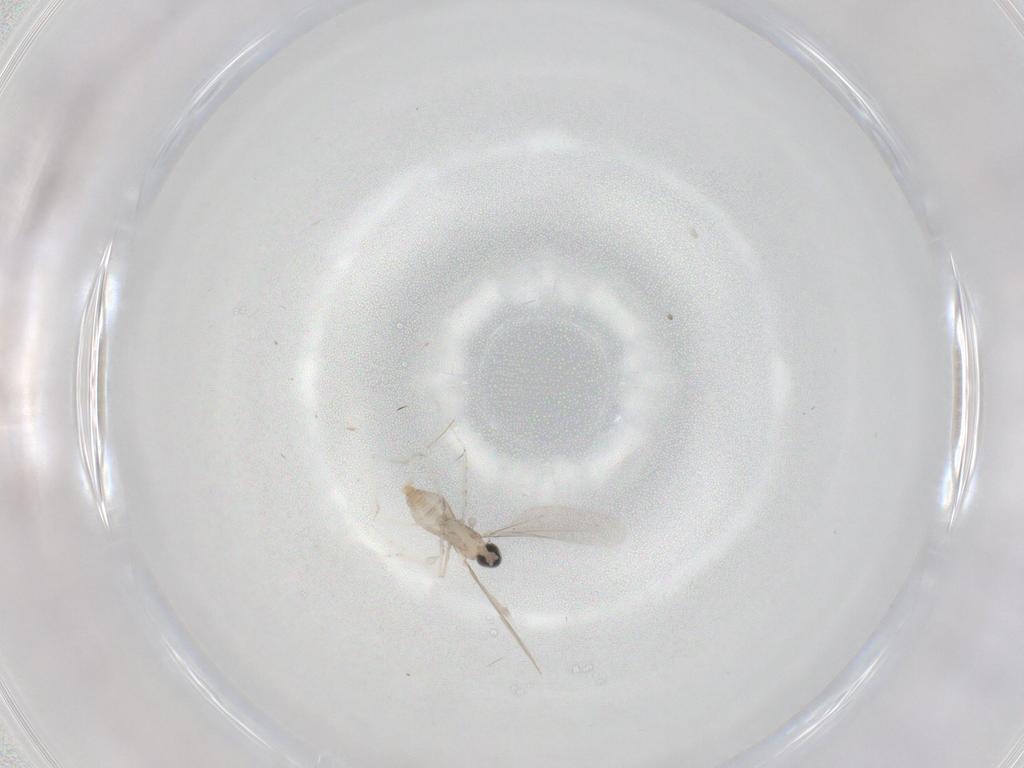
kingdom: Animalia
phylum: Arthropoda
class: Insecta
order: Diptera
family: Cecidomyiidae
